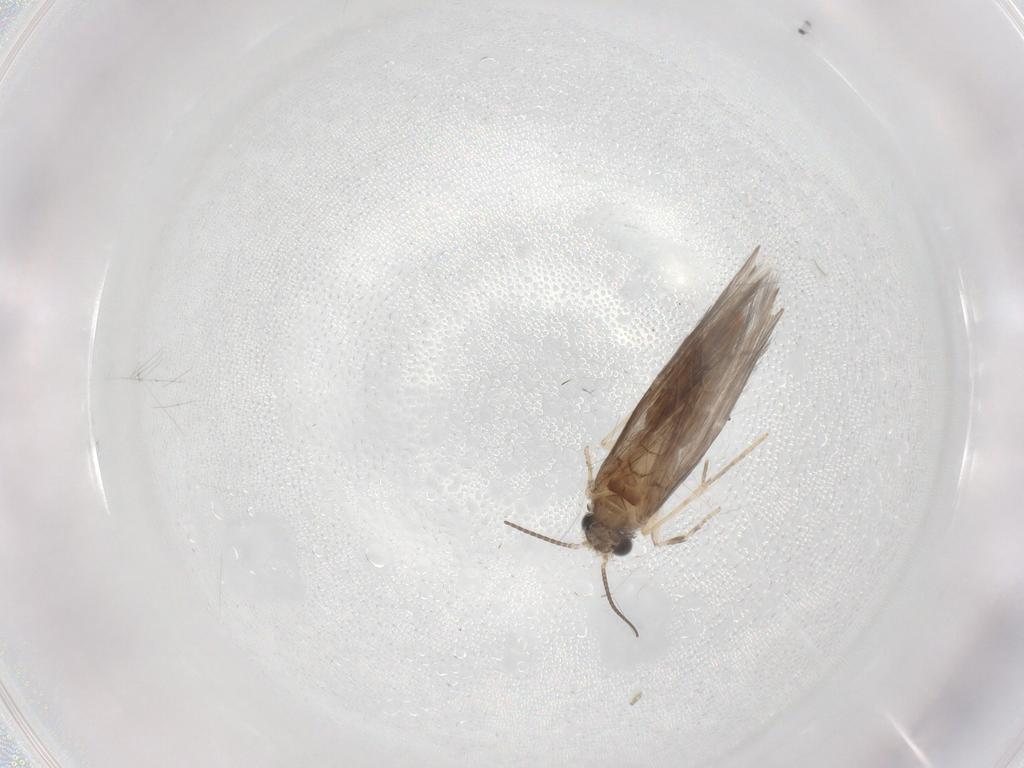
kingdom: Animalia
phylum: Arthropoda
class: Insecta
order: Trichoptera
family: Hydroptilidae
